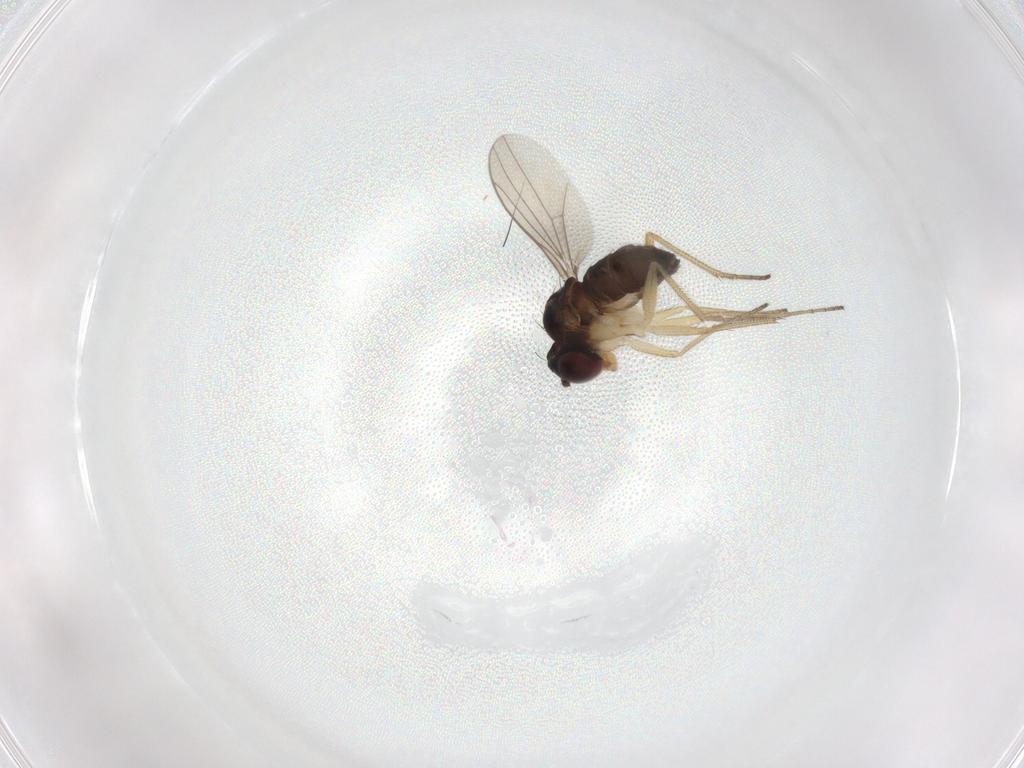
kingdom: Animalia
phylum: Arthropoda
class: Insecta
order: Diptera
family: Dolichopodidae
